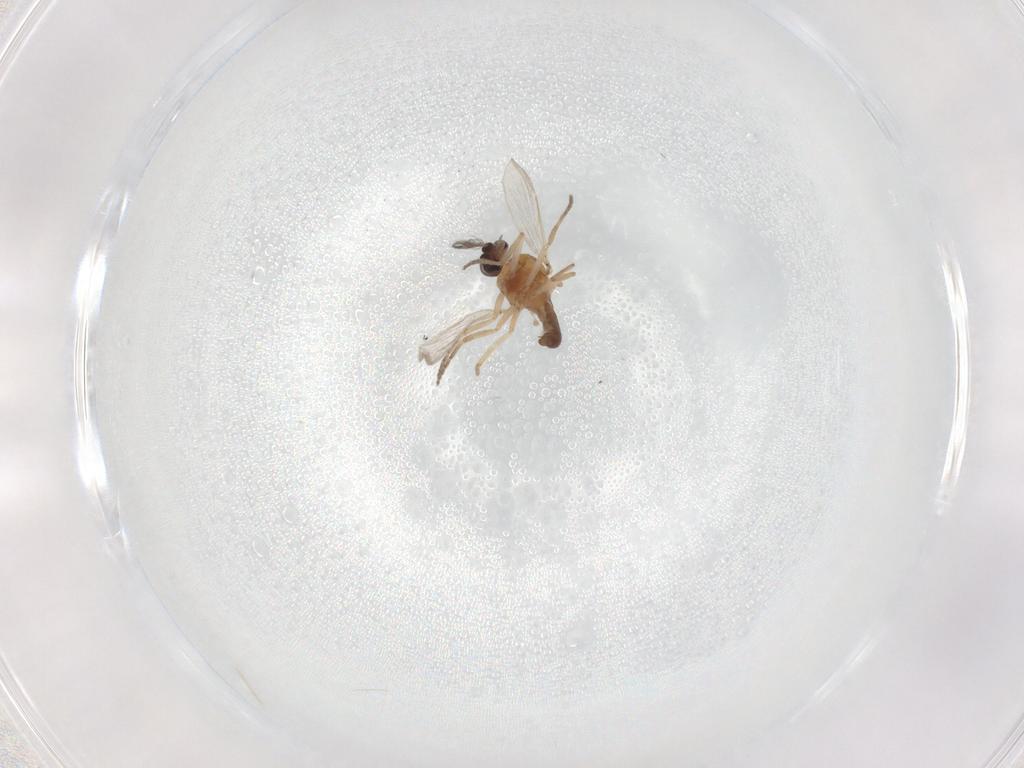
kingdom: Animalia
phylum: Arthropoda
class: Insecta
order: Diptera
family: Ceratopogonidae
